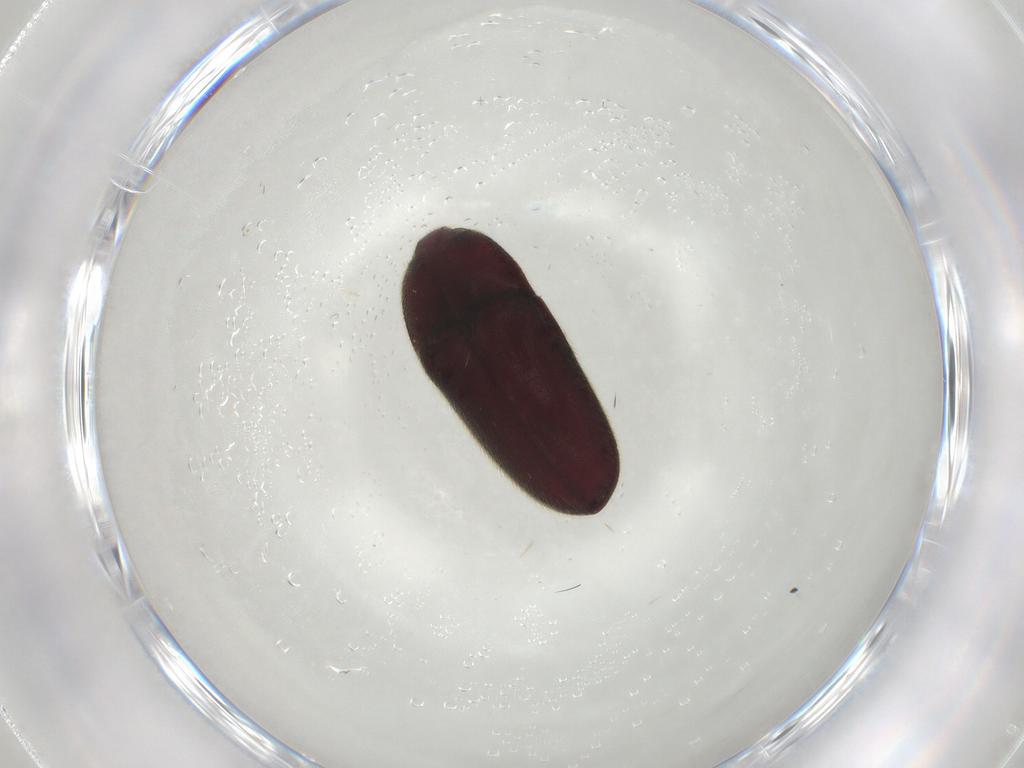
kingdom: Animalia
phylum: Arthropoda
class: Insecta
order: Coleoptera
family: Throscidae
